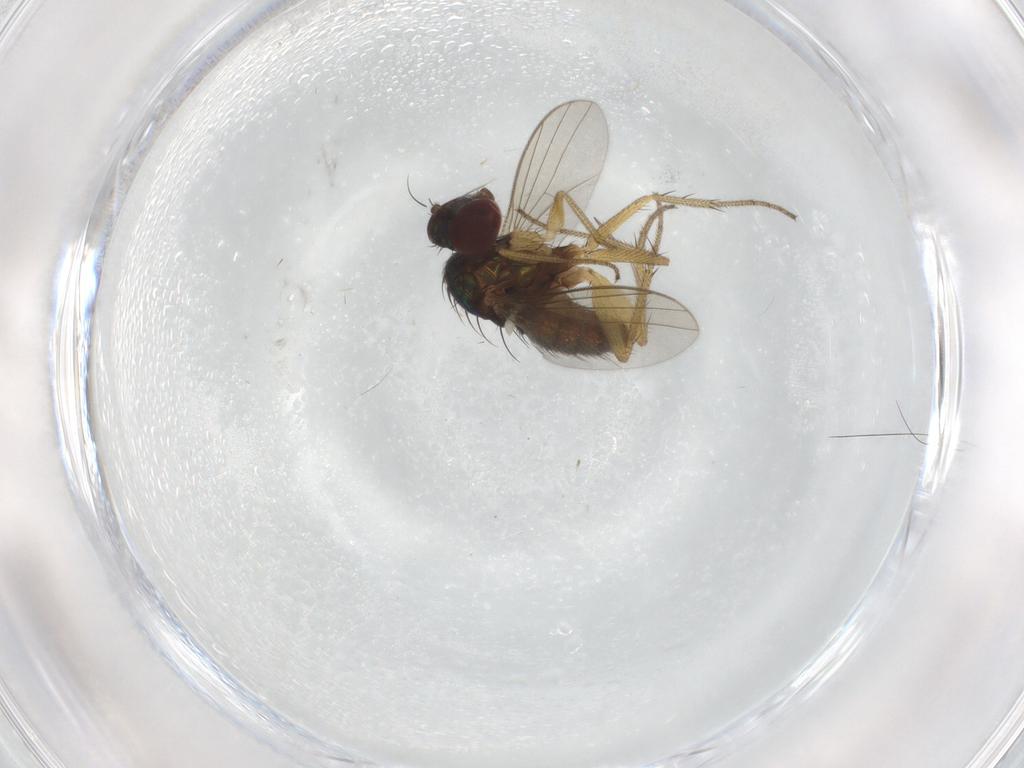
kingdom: Animalia
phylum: Arthropoda
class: Insecta
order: Diptera
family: Dolichopodidae
